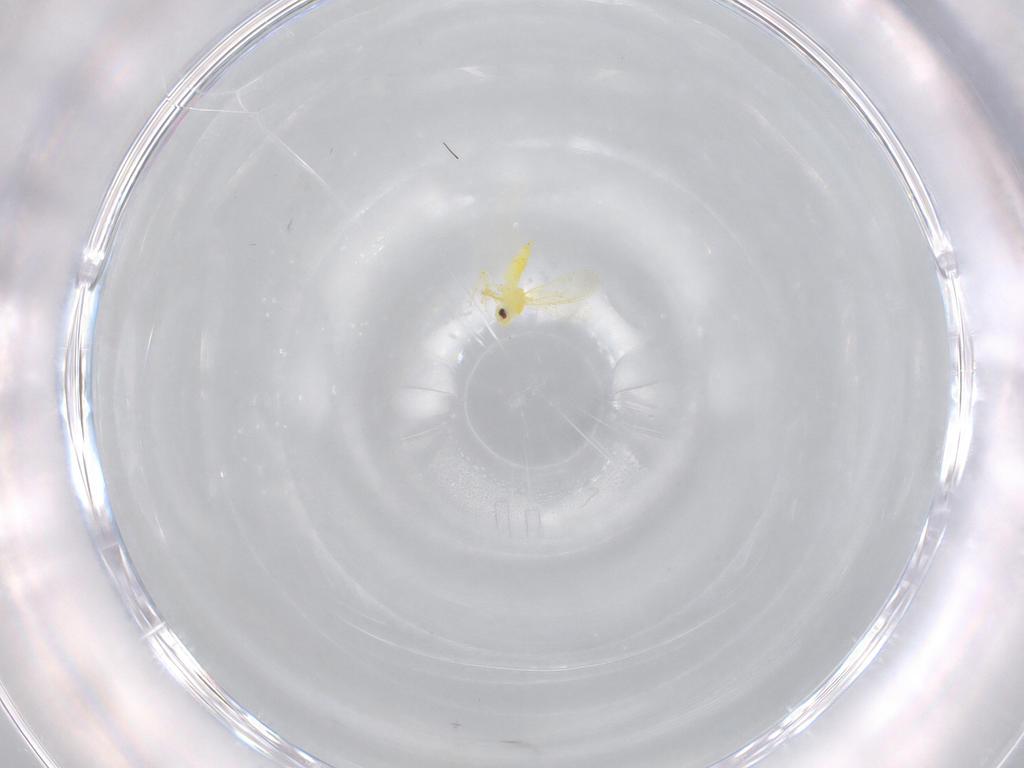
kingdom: Animalia
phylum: Arthropoda
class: Insecta
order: Hemiptera
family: Aleyrodidae
